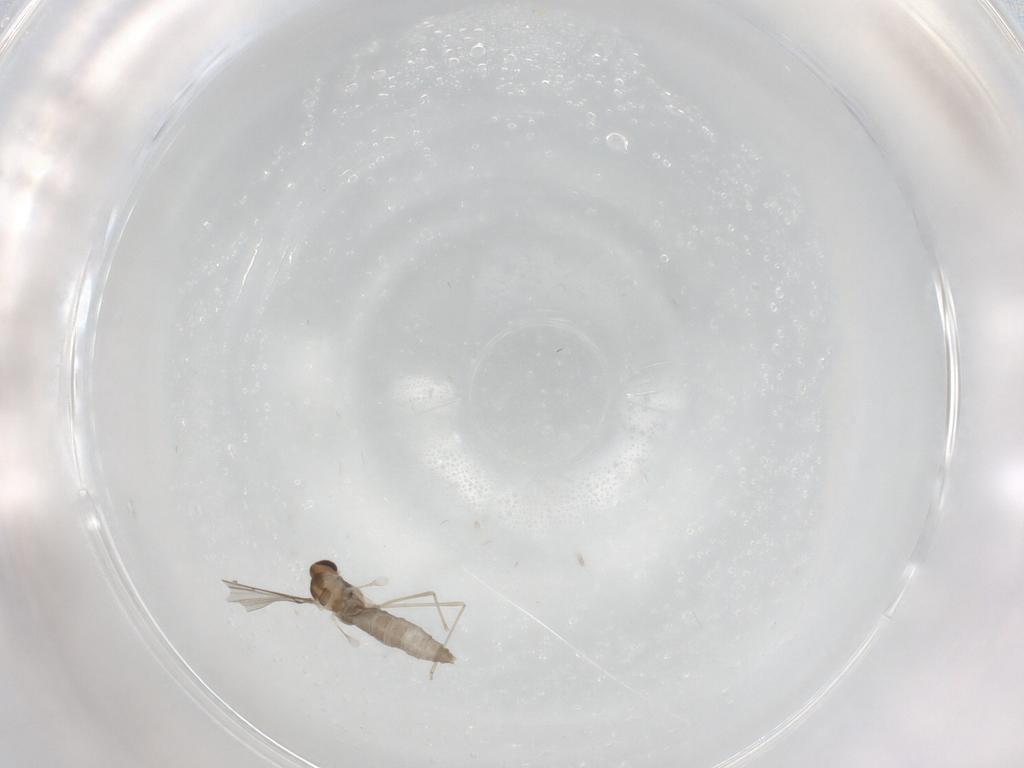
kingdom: Animalia
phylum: Arthropoda
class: Insecta
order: Diptera
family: Cecidomyiidae
